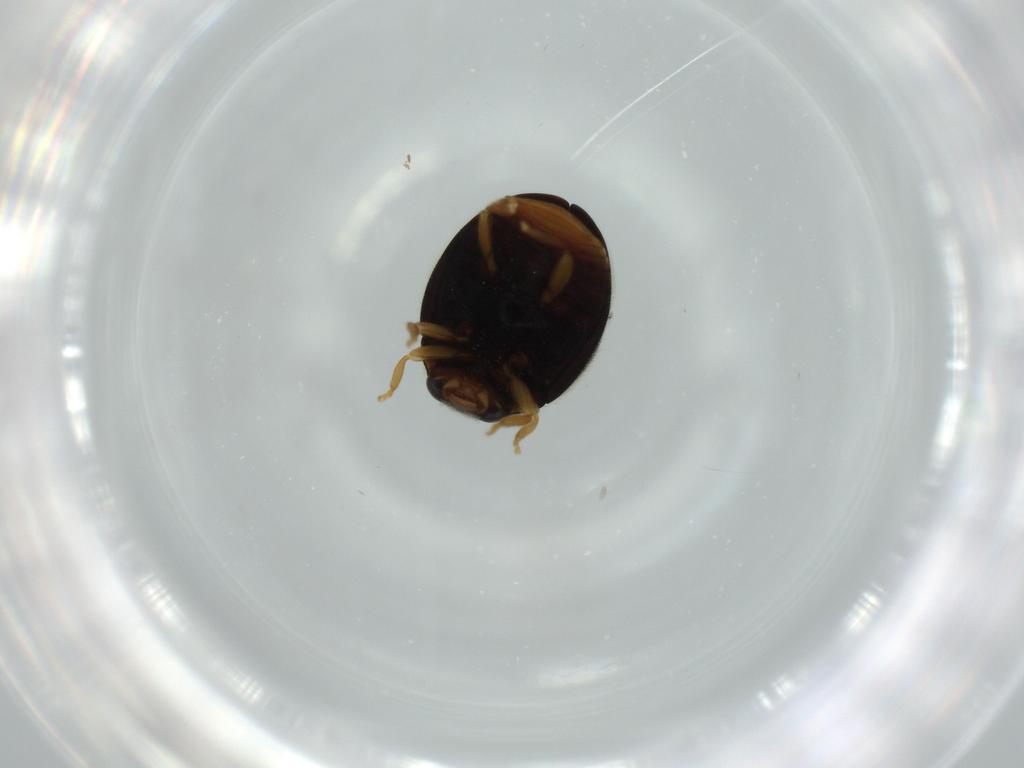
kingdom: Animalia
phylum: Arthropoda
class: Insecta
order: Coleoptera
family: Coccinellidae
